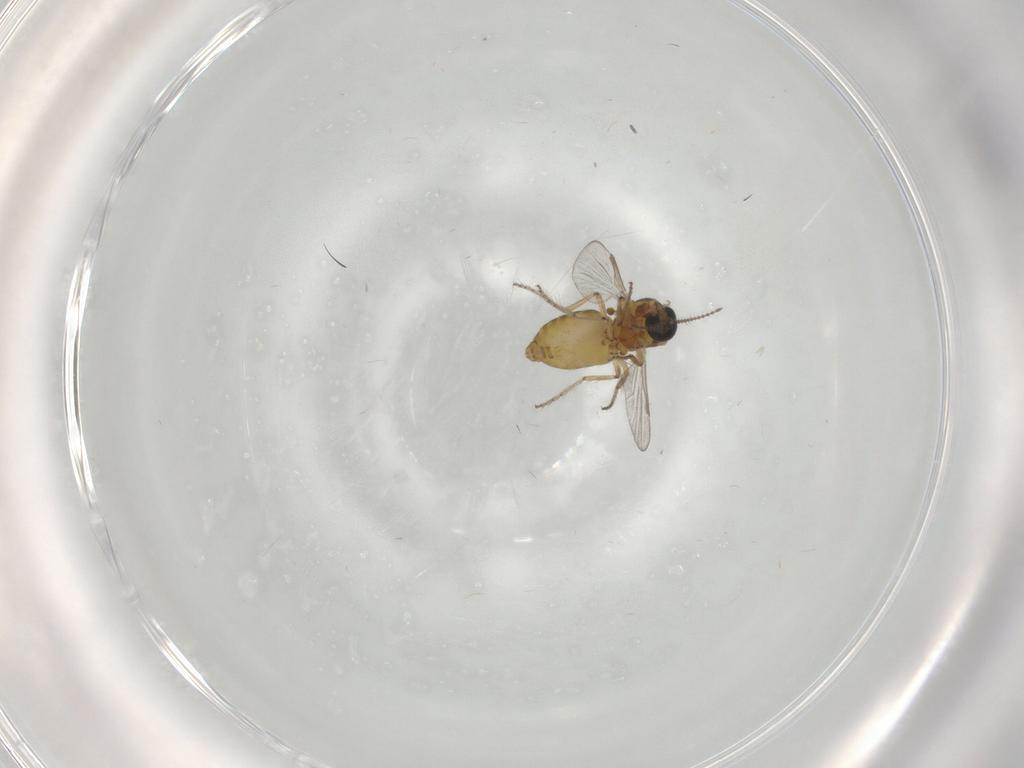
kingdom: Animalia
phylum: Arthropoda
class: Insecta
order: Diptera
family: Ceratopogonidae
